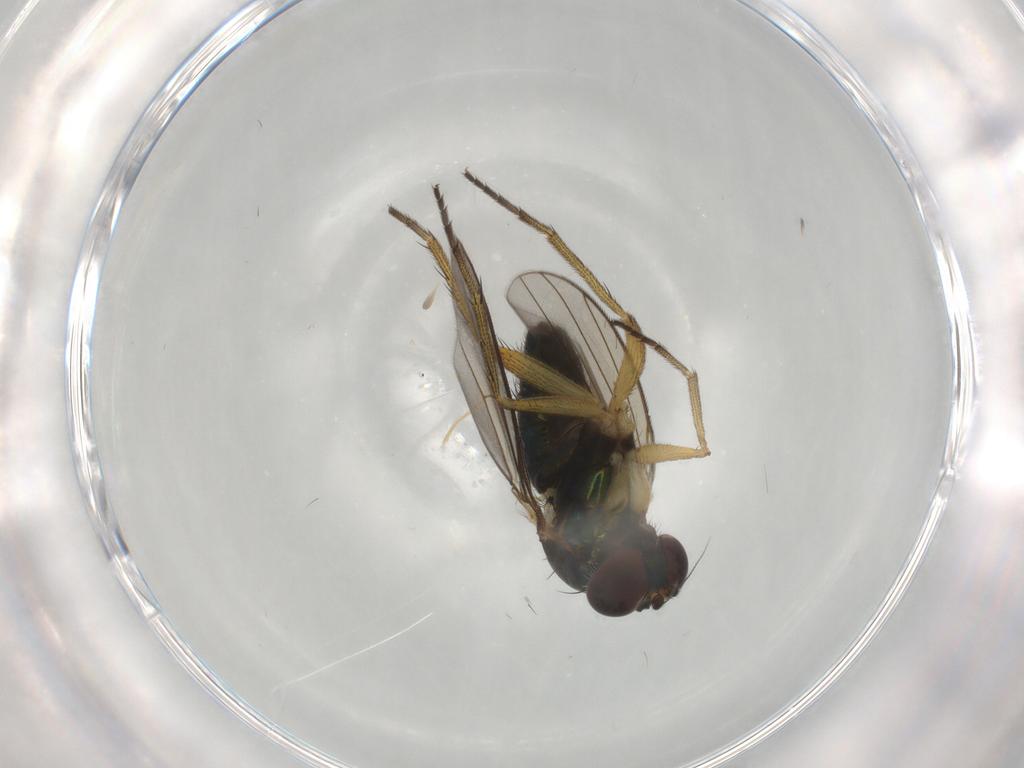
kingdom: Animalia
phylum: Arthropoda
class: Insecta
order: Diptera
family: Dolichopodidae
